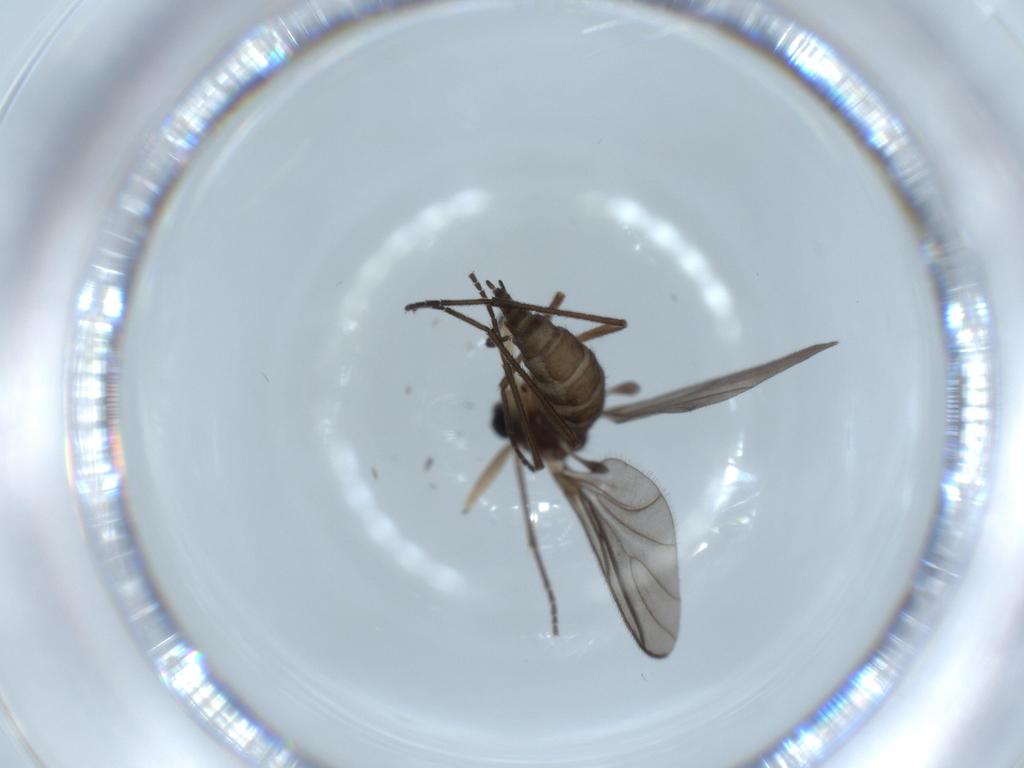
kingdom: Animalia
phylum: Arthropoda
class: Insecta
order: Diptera
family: Sciaridae
